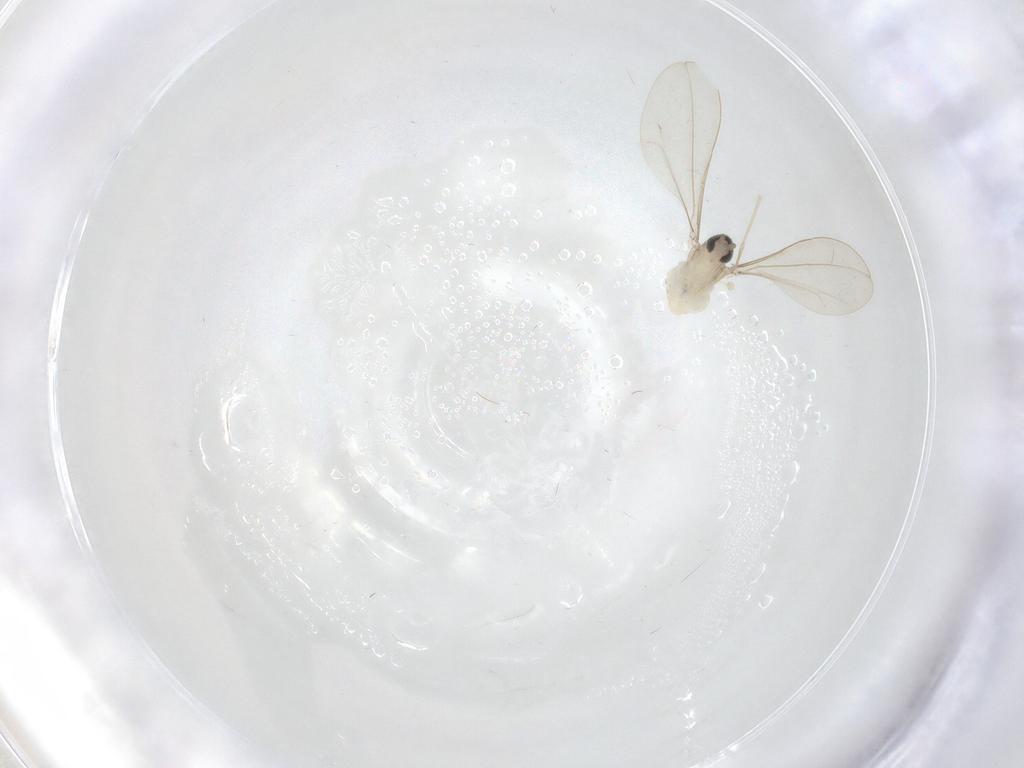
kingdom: Animalia
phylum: Arthropoda
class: Insecta
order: Diptera
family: Cecidomyiidae
